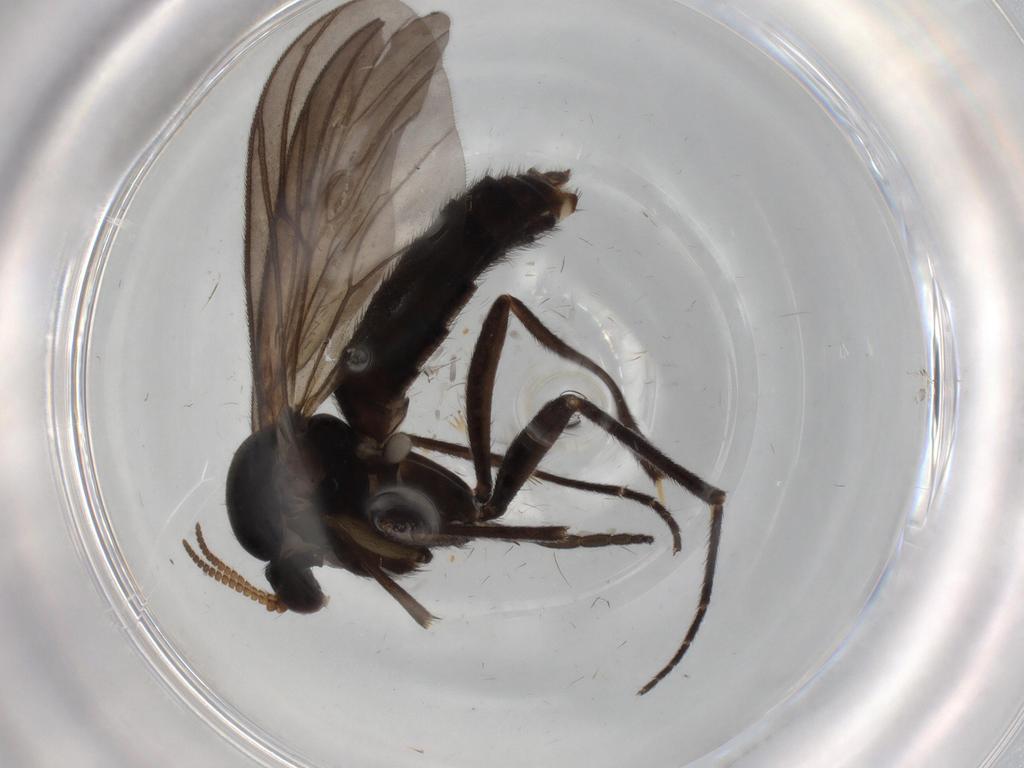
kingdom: Animalia
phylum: Arthropoda
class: Insecta
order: Diptera
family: Mycetophilidae
